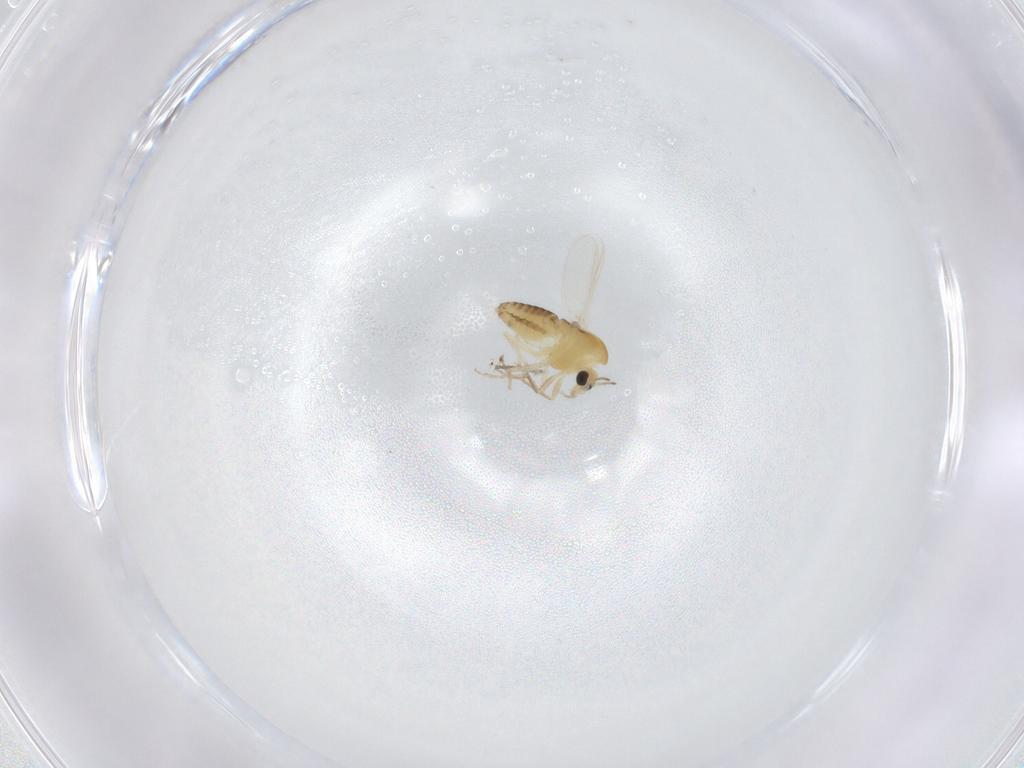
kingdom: Animalia
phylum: Arthropoda
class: Insecta
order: Diptera
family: Chironomidae
